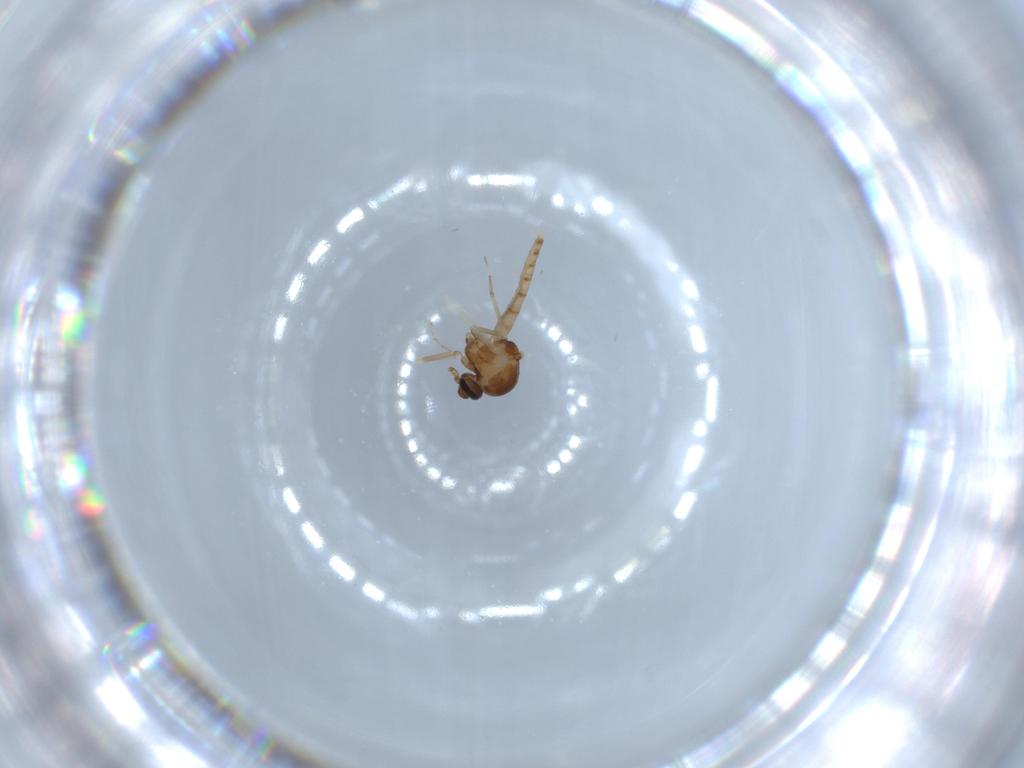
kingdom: Animalia
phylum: Arthropoda
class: Insecta
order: Diptera
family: Ceratopogonidae
